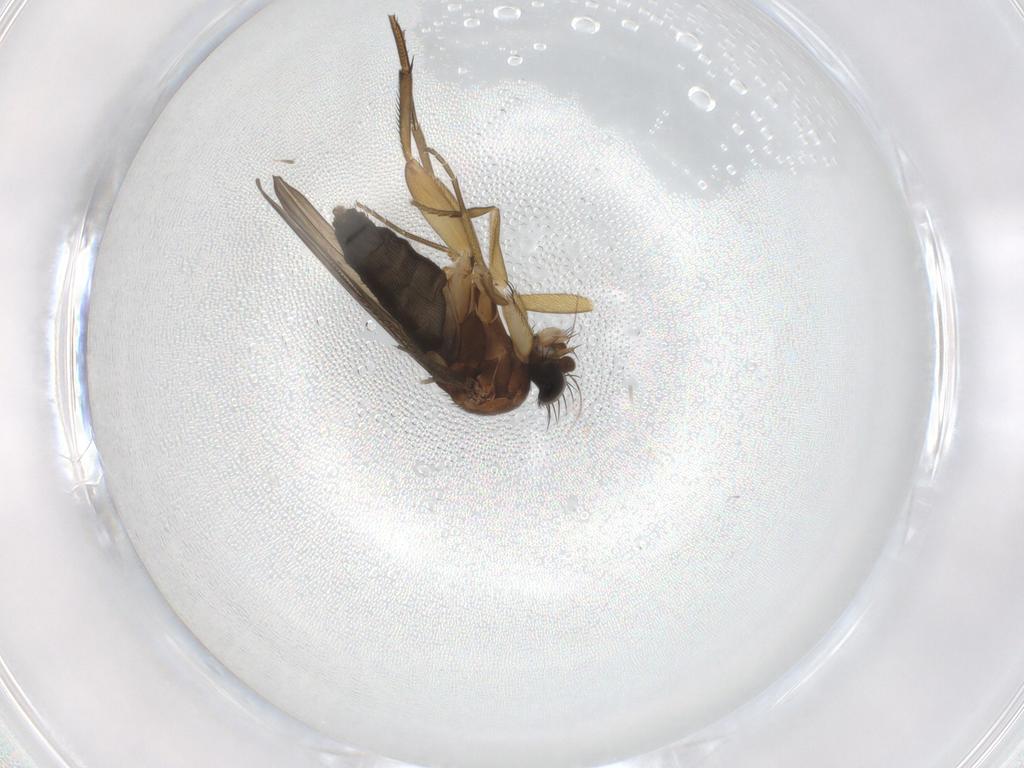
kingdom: Animalia
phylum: Arthropoda
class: Insecta
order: Diptera
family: Phoridae
